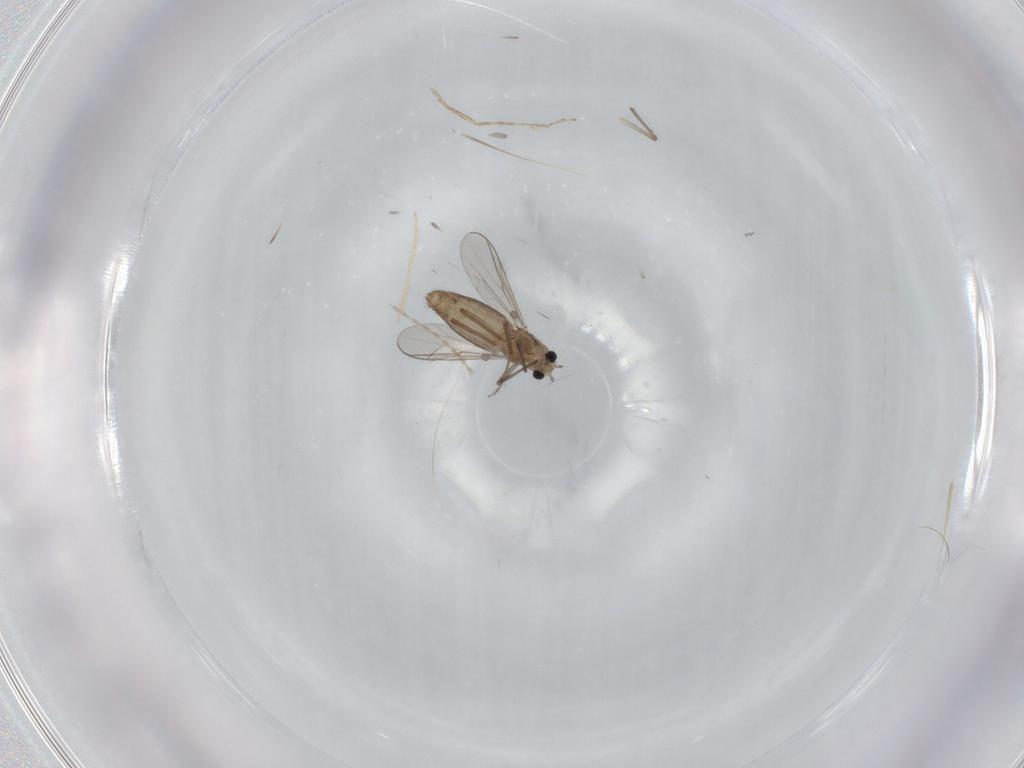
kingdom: Animalia
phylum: Arthropoda
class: Insecta
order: Diptera
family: Chironomidae
